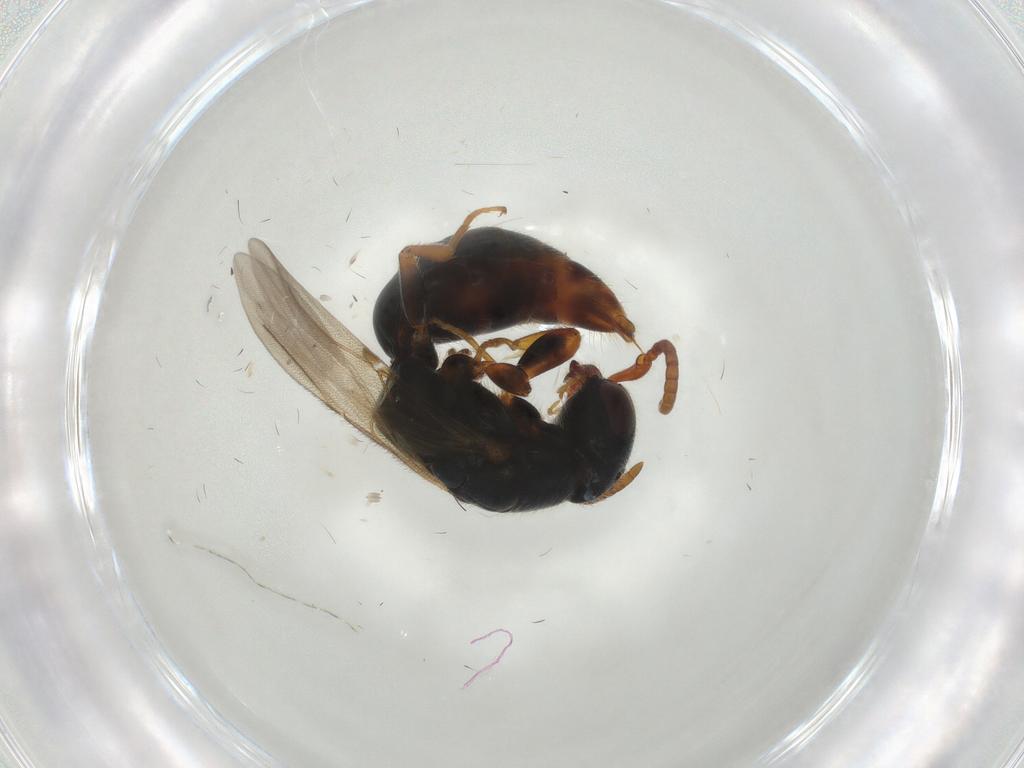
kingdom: Animalia
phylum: Arthropoda
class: Insecta
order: Hymenoptera
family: Bethylidae
